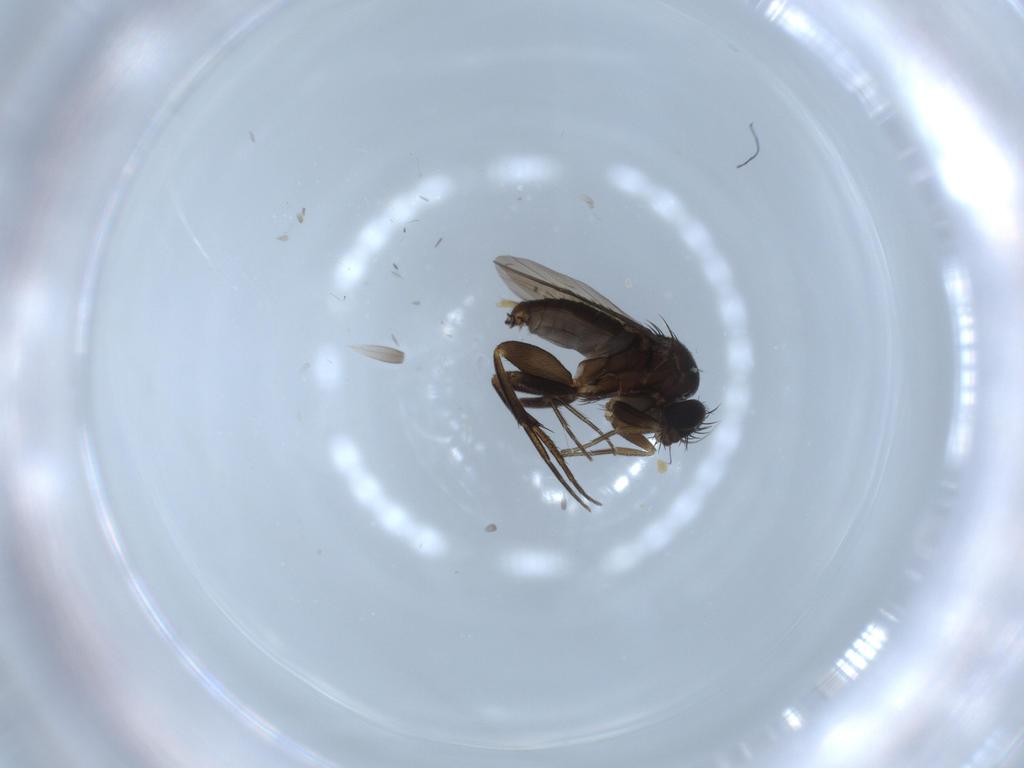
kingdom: Animalia
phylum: Arthropoda
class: Insecta
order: Diptera
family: Phoridae
